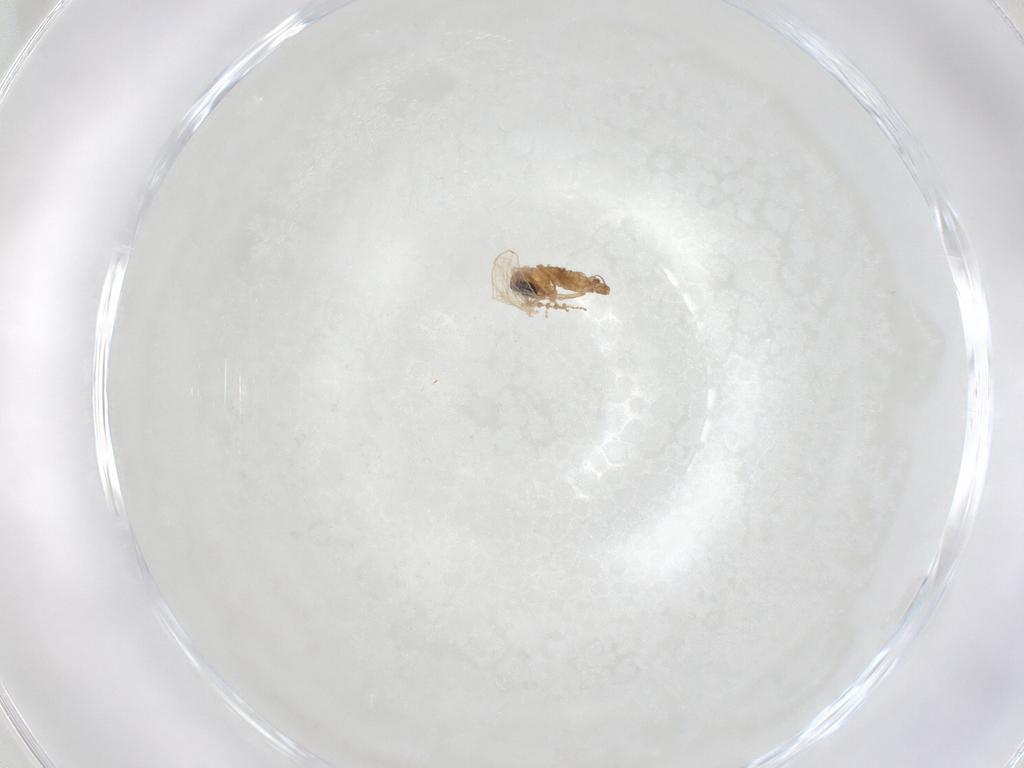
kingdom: Animalia
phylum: Arthropoda
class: Insecta
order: Diptera
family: Psychodidae
